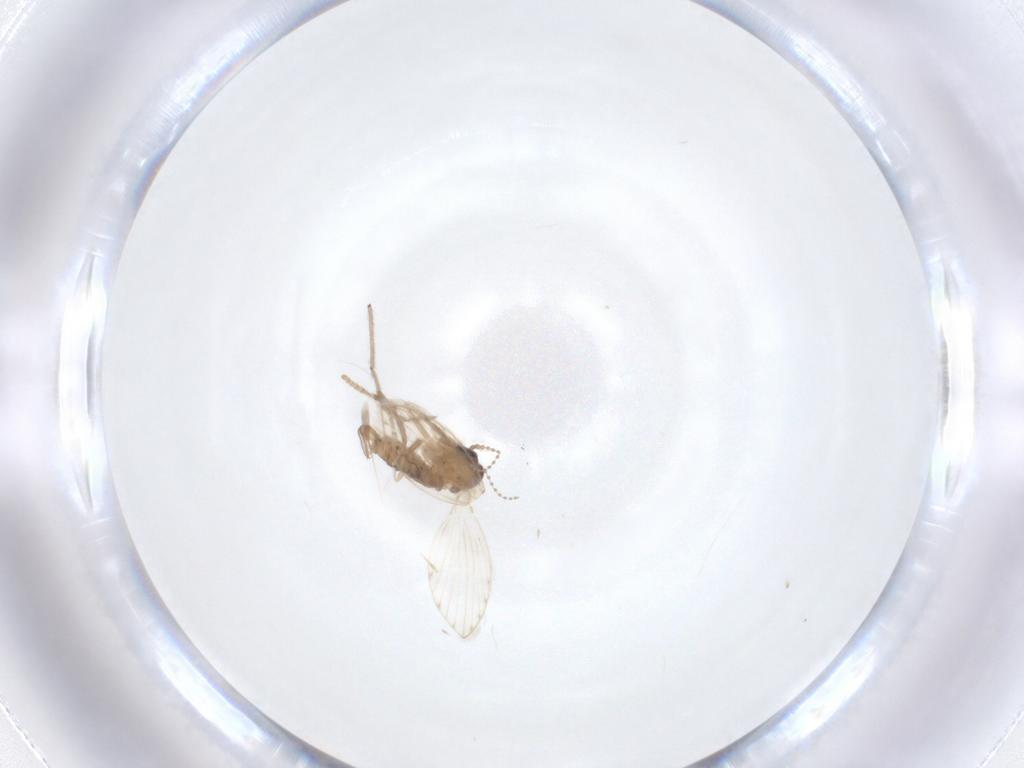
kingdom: Animalia
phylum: Arthropoda
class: Insecta
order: Diptera
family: Psychodidae
